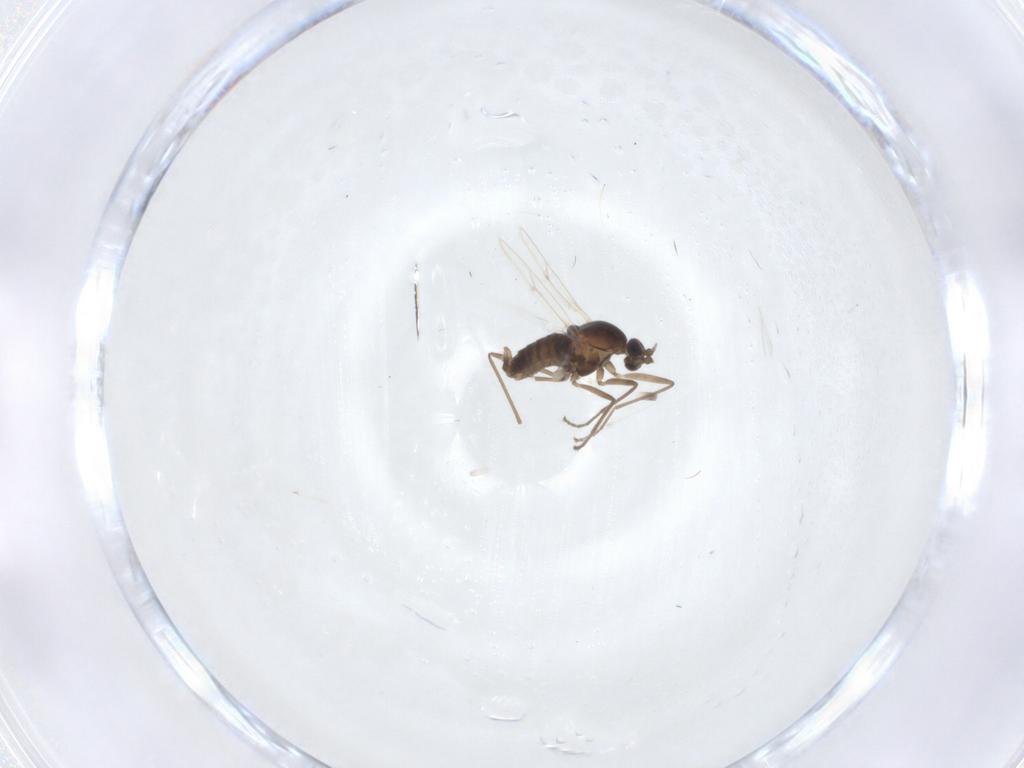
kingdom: Animalia
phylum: Arthropoda
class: Insecta
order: Diptera
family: Cecidomyiidae
